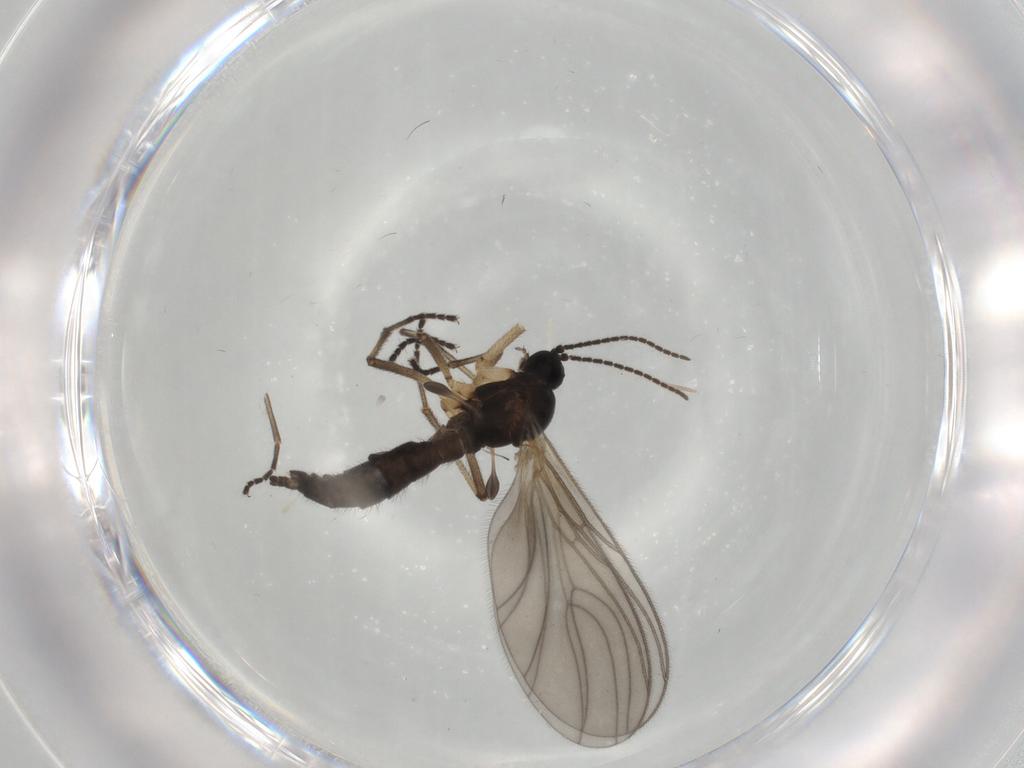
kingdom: Animalia
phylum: Arthropoda
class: Insecta
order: Diptera
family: Sciaridae
